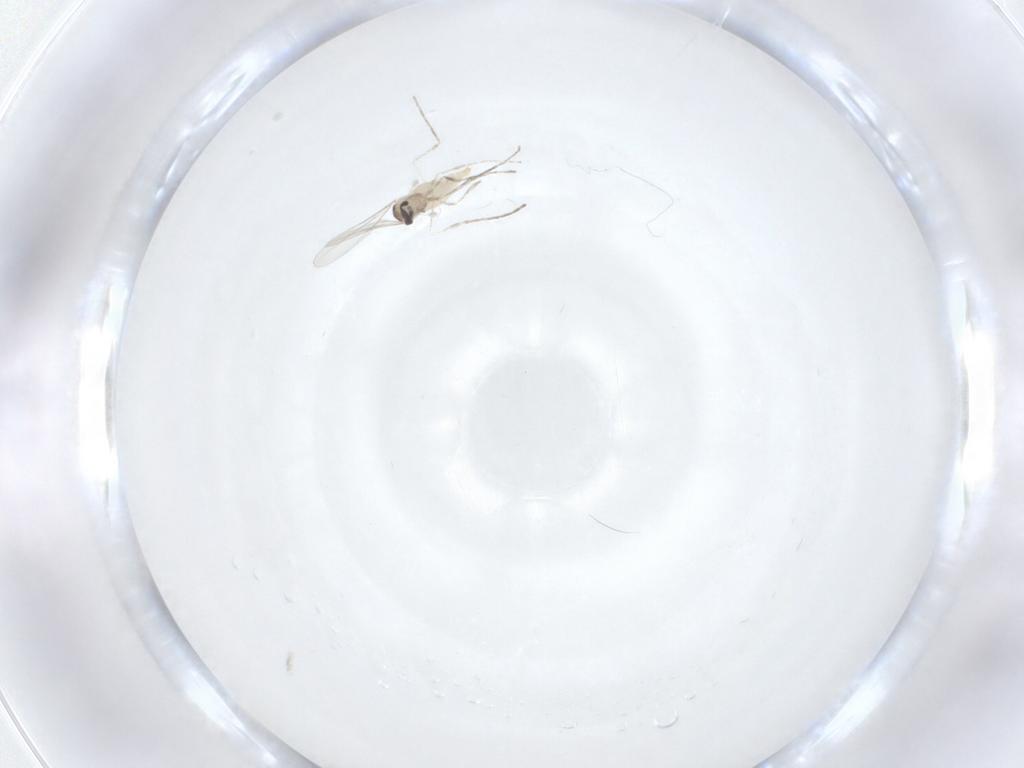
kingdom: Animalia
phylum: Arthropoda
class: Insecta
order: Diptera
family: Cecidomyiidae
